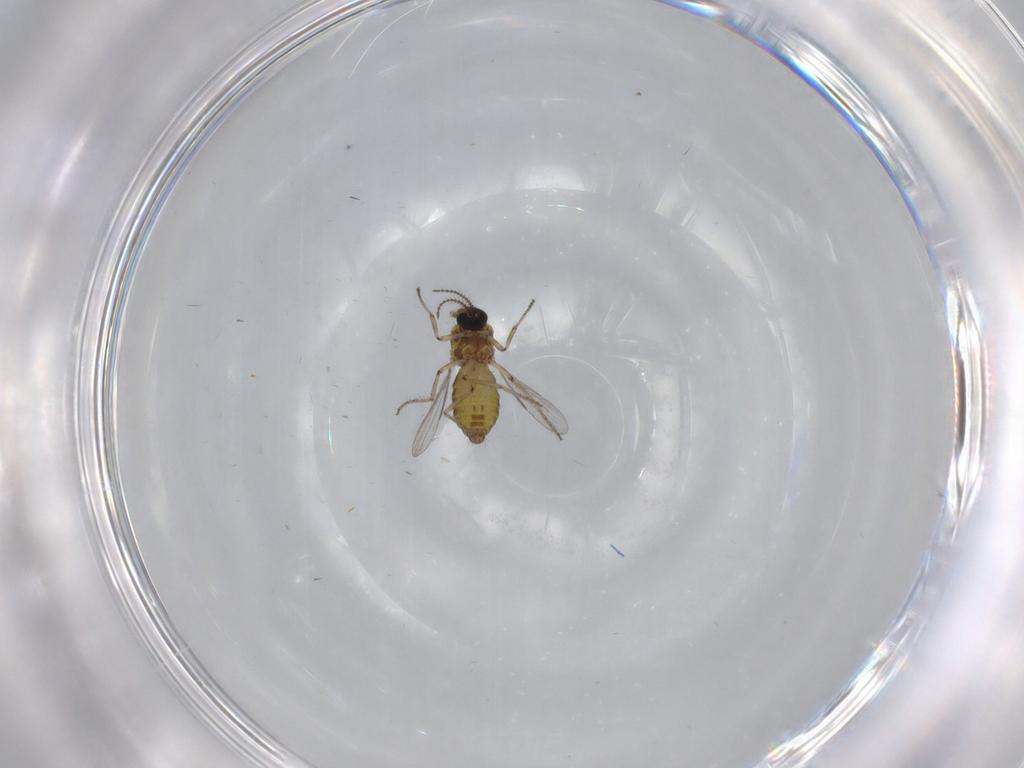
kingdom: Animalia
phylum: Arthropoda
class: Insecta
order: Diptera
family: Ceratopogonidae
